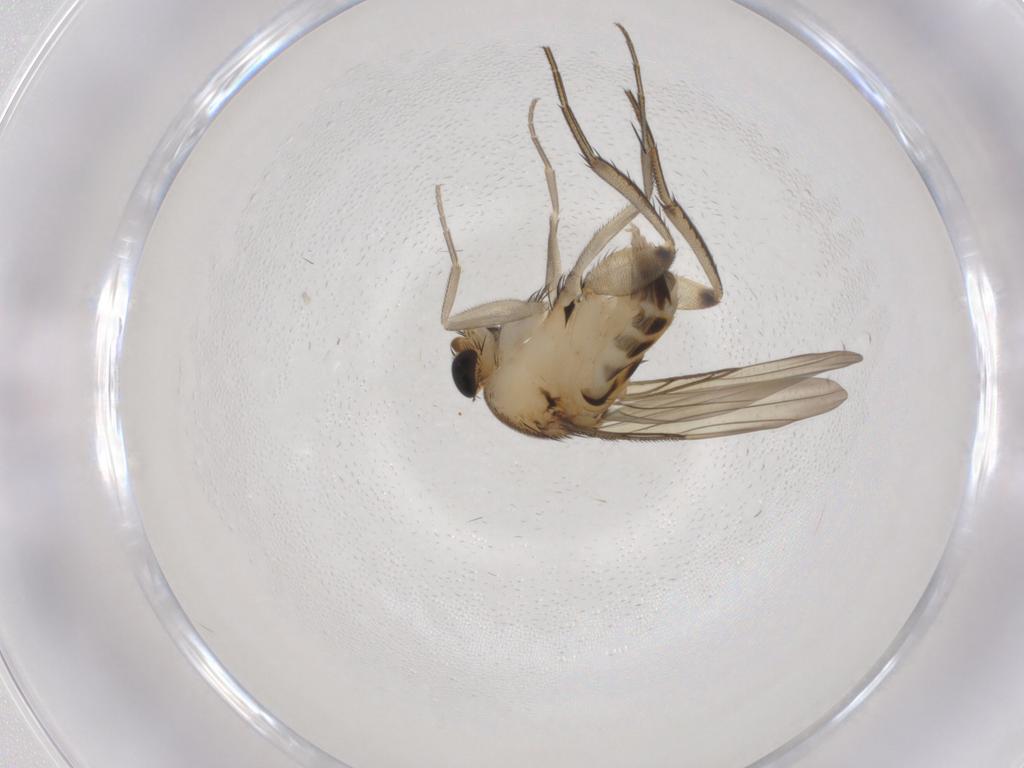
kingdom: Animalia
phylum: Arthropoda
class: Insecta
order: Diptera
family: Phoridae
